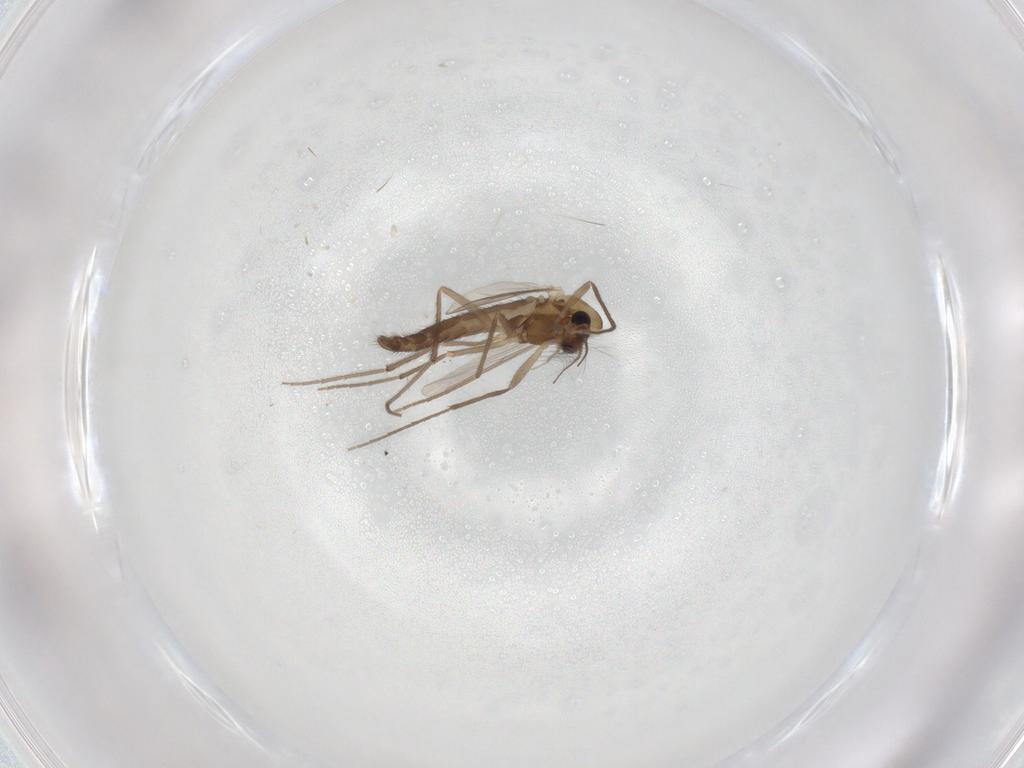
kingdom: Animalia
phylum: Arthropoda
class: Insecta
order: Diptera
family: Chironomidae
